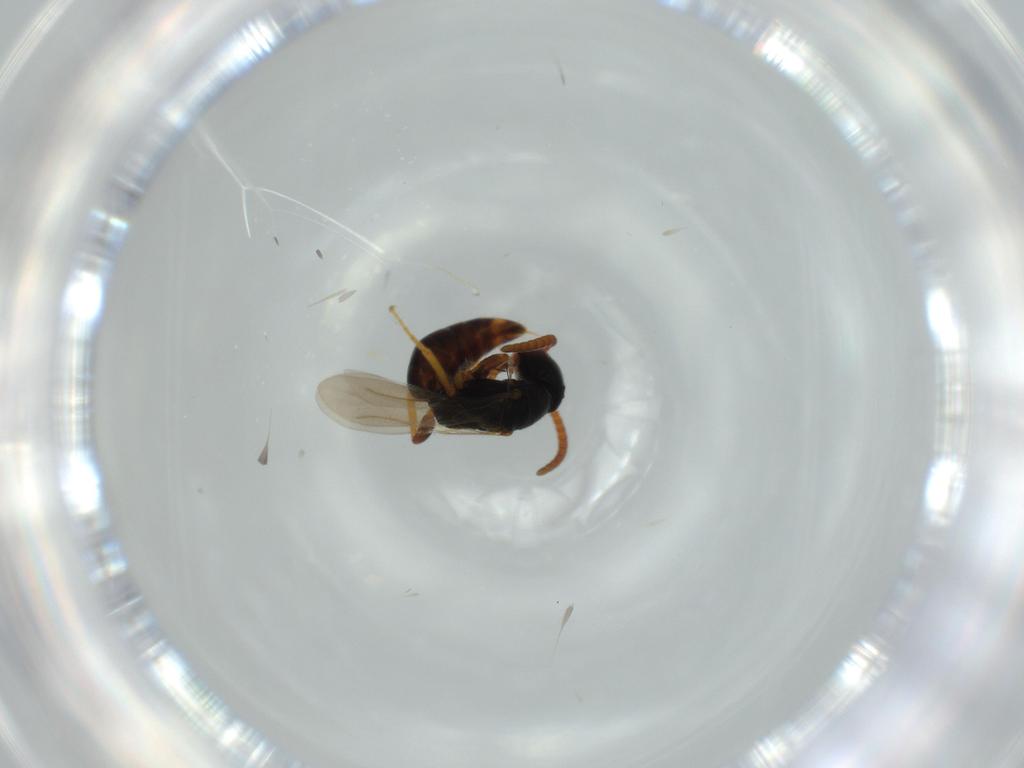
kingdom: Animalia
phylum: Arthropoda
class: Insecta
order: Hymenoptera
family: Bethylidae
